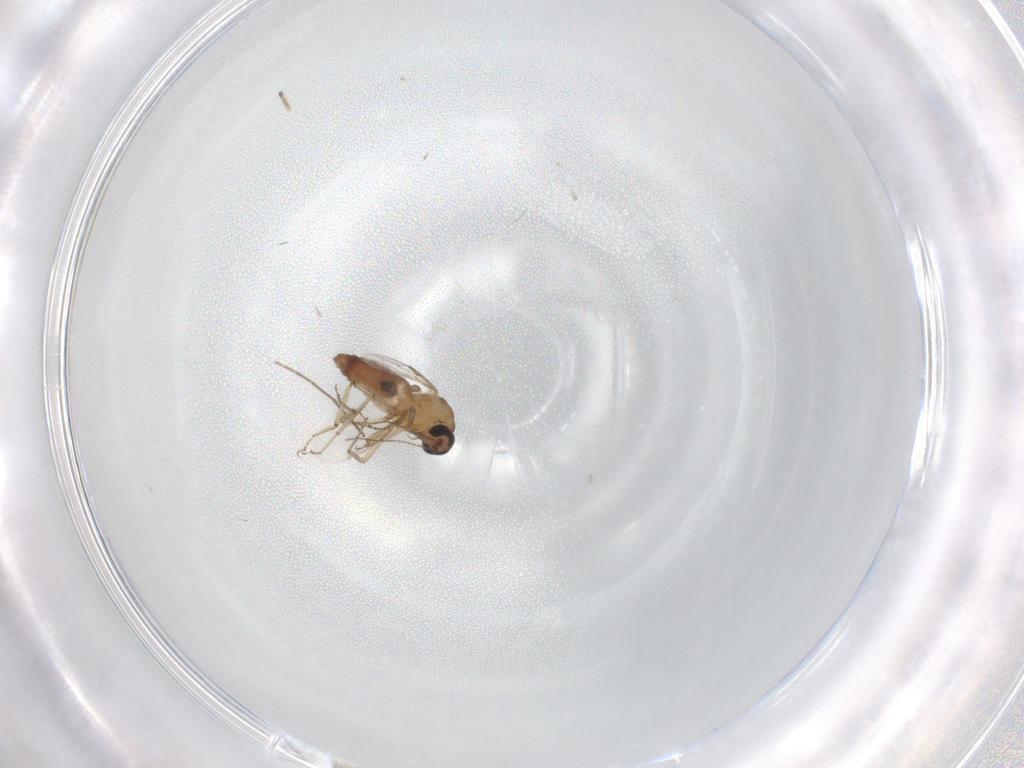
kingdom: Animalia
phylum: Arthropoda
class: Insecta
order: Diptera
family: Ceratopogonidae
